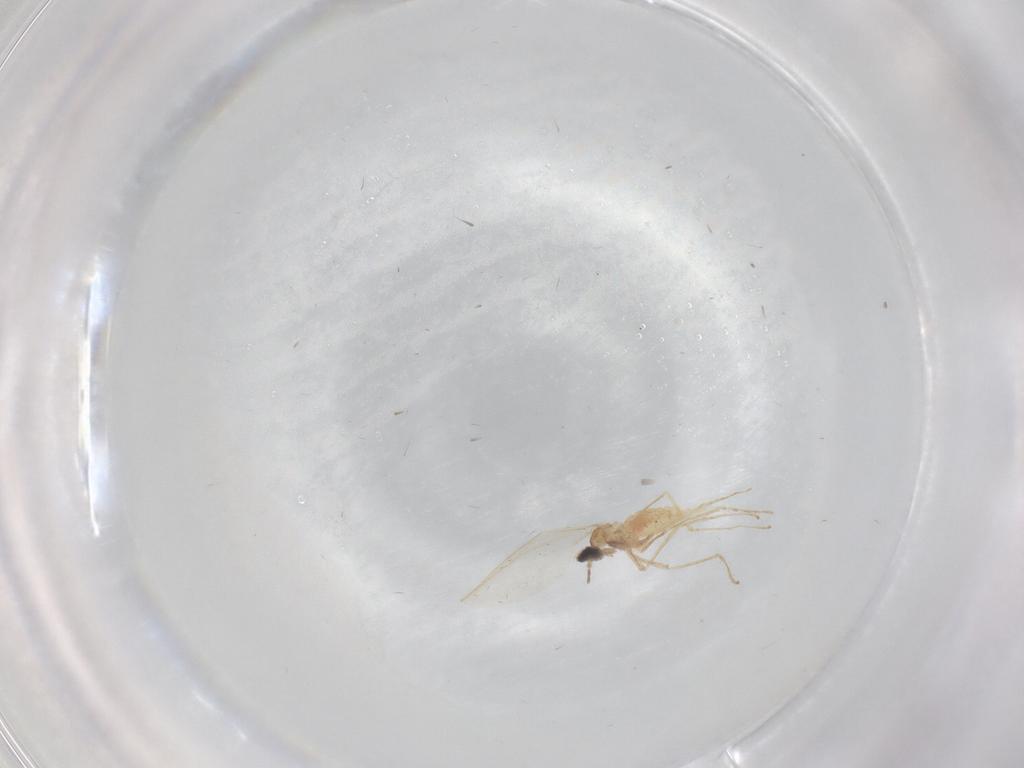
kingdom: Animalia
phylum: Arthropoda
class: Insecta
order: Diptera
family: Cecidomyiidae
